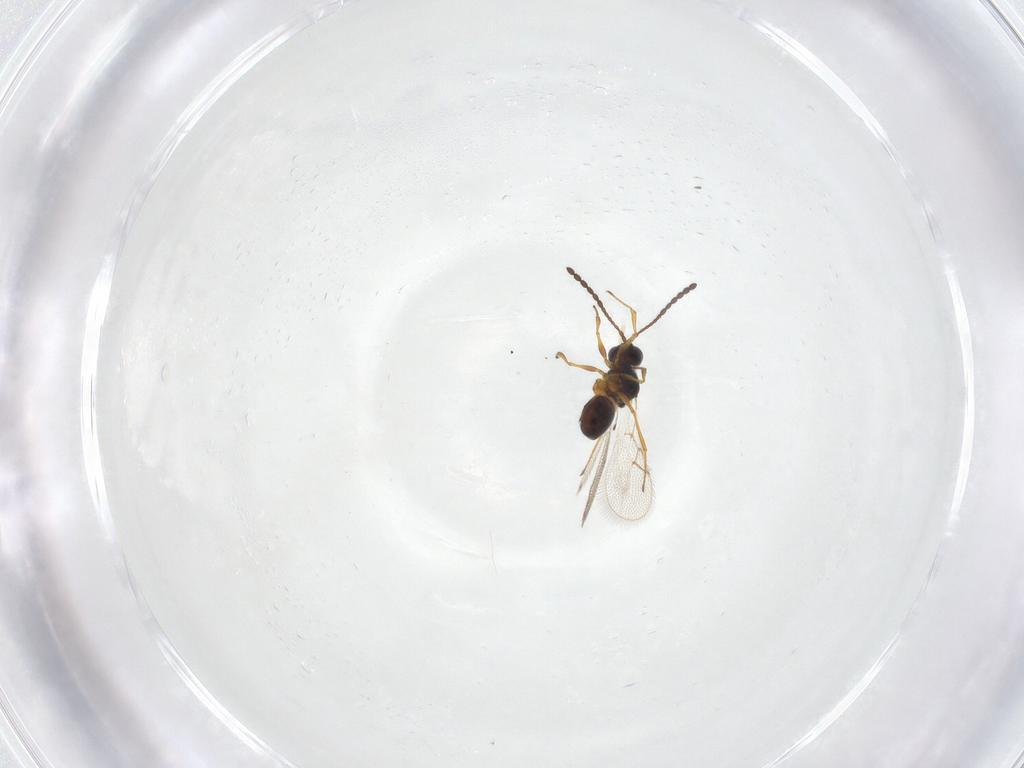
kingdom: Animalia
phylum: Arthropoda
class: Insecta
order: Hymenoptera
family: Figitidae
